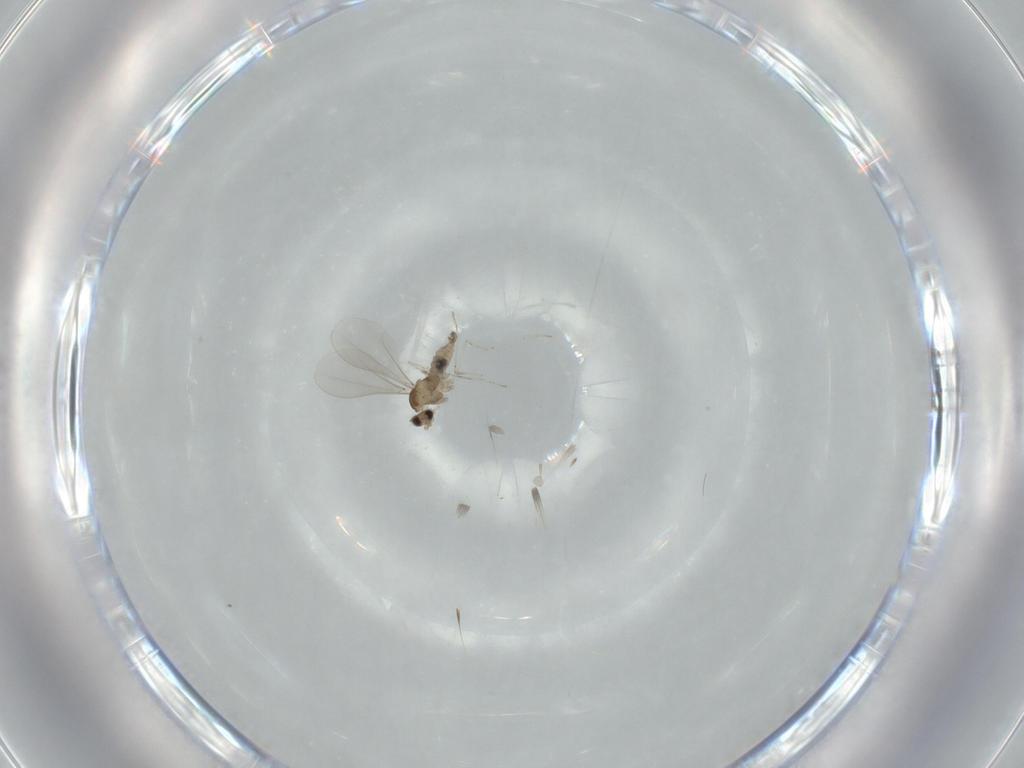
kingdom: Animalia
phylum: Arthropoda
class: Insecta
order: Diptera
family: Cecidomyiidae
